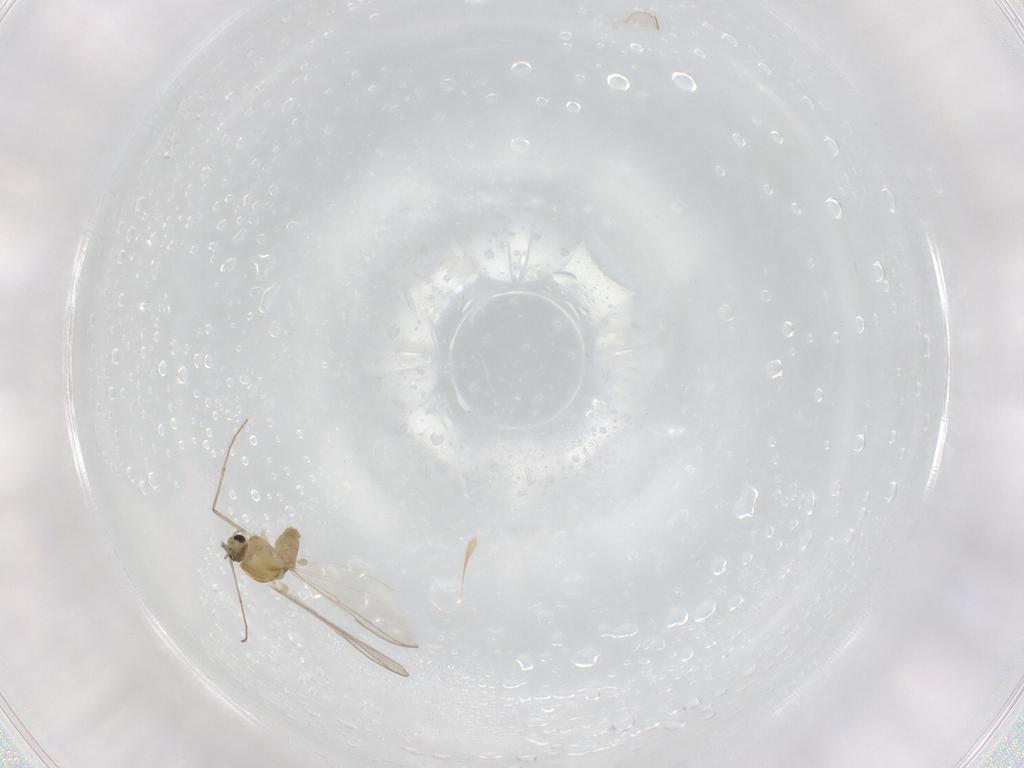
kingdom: Animalia
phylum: Arthropoda
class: Insecta
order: Diptera
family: Chironomidae
